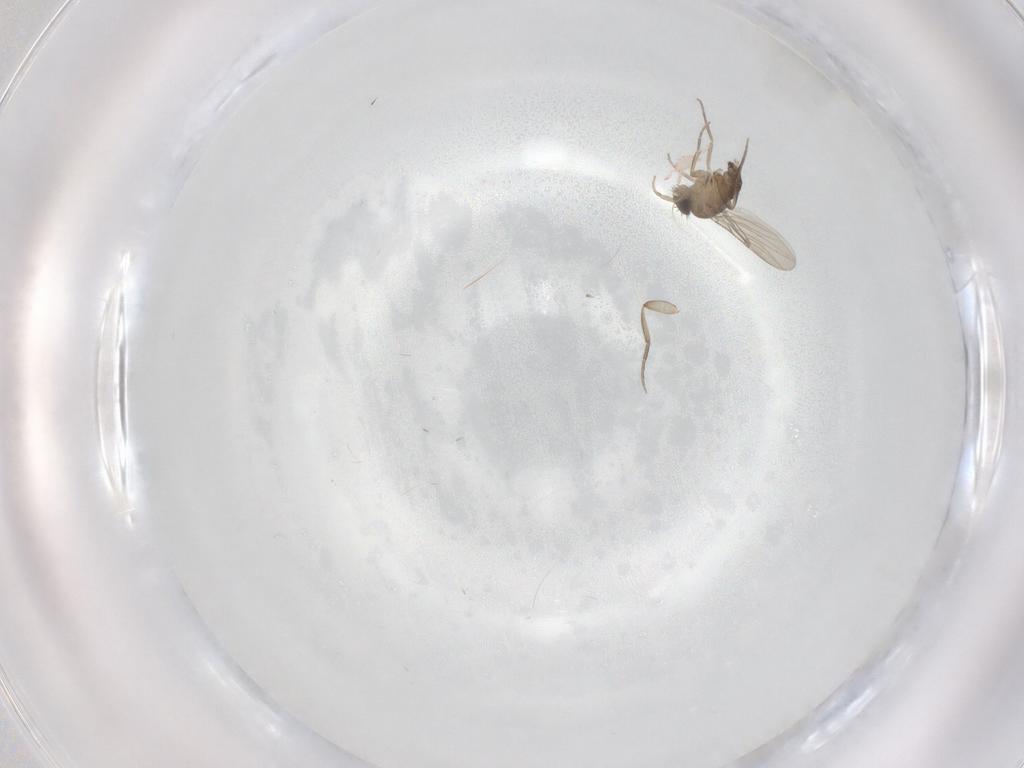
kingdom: Animalia
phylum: Arthropoda
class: Insecta
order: Diptera
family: Phoridae
